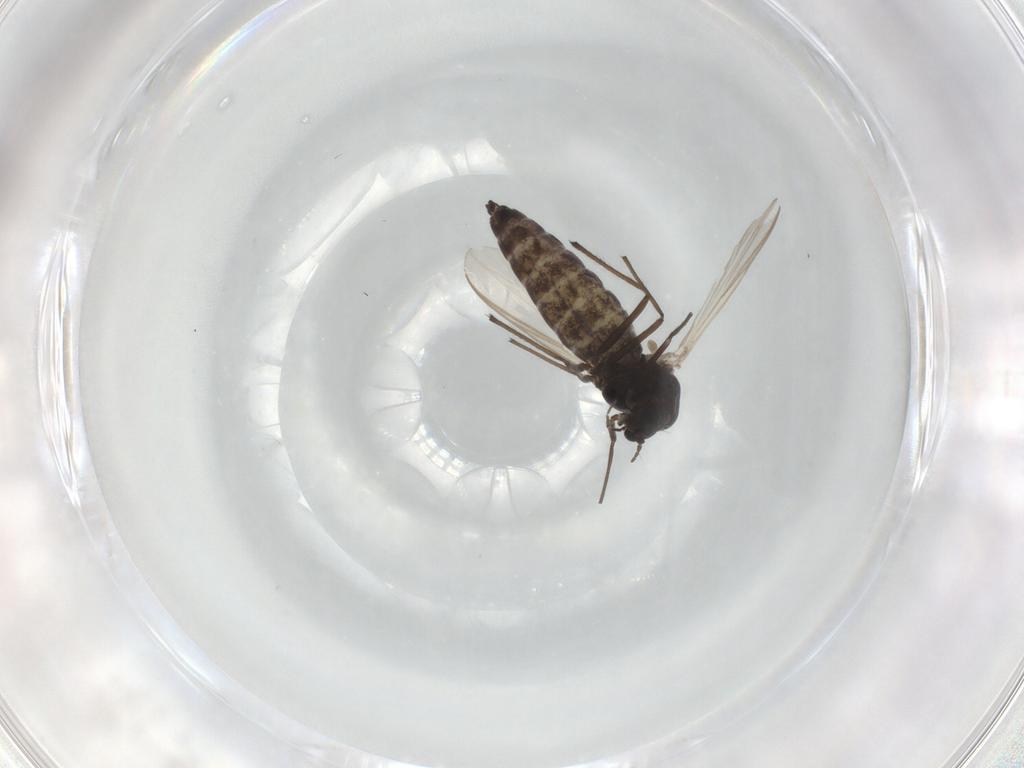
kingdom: Animalia
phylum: Arthropoda
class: Insecta
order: Diptera
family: Chironomidae
